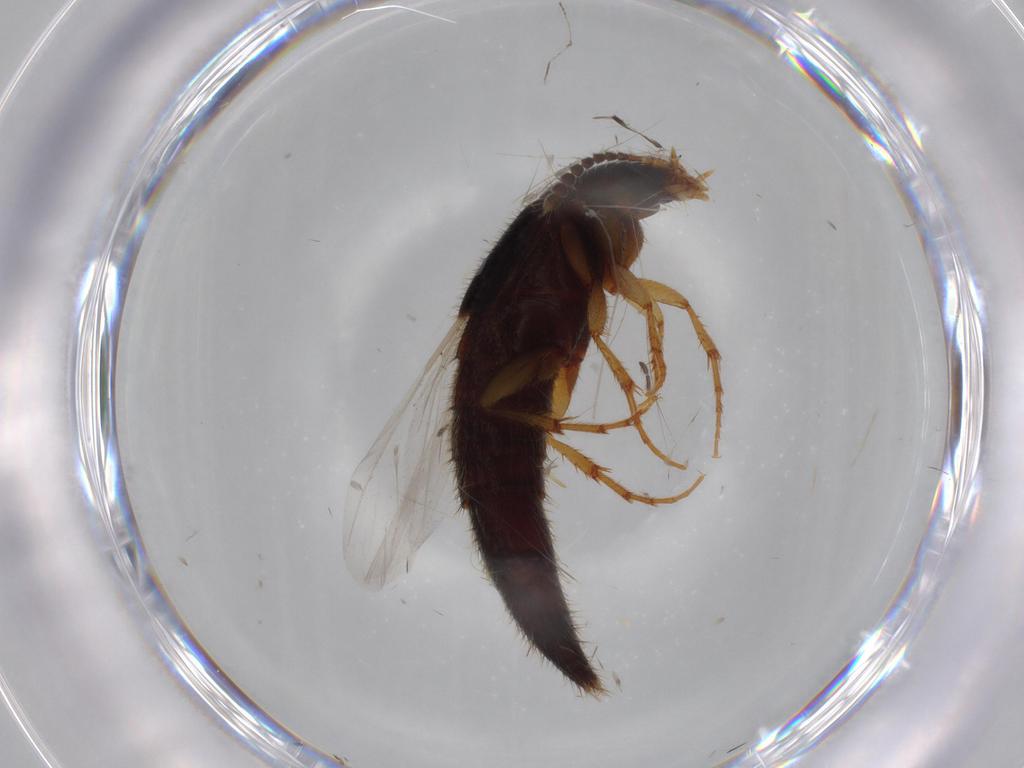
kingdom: Animalia
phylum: Arthropoda
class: Insecta
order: Coleoptera
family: Staphylinidae
